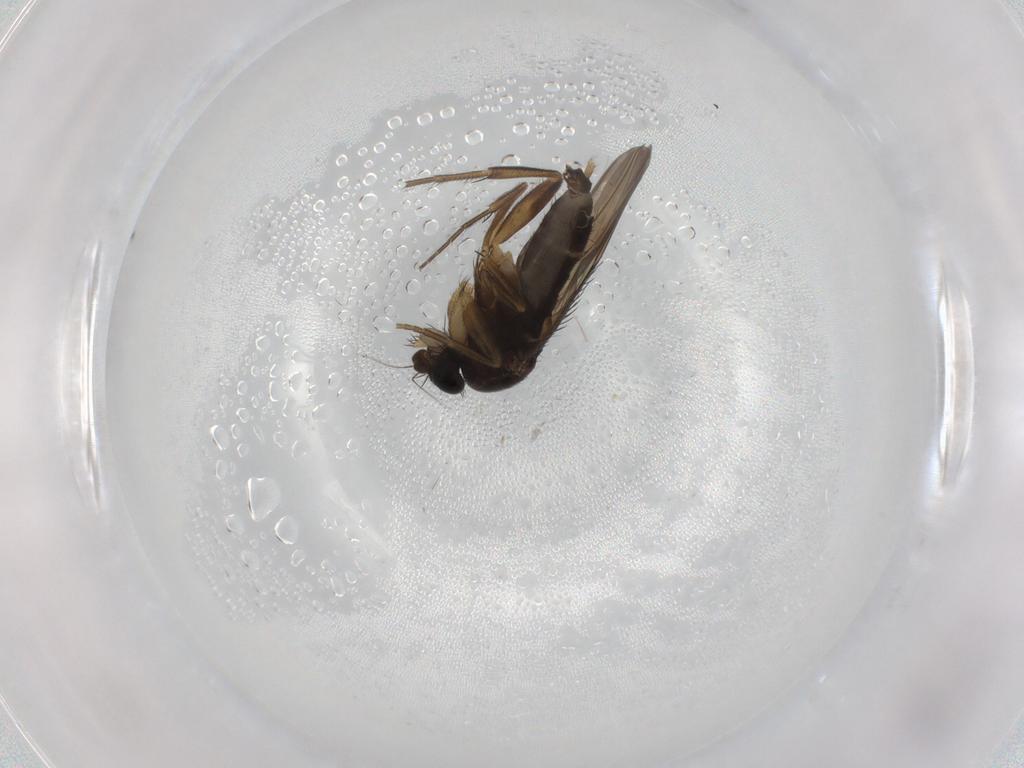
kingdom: Animalia
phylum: Arthropoda
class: Insecta
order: Diptera
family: Phoridae
